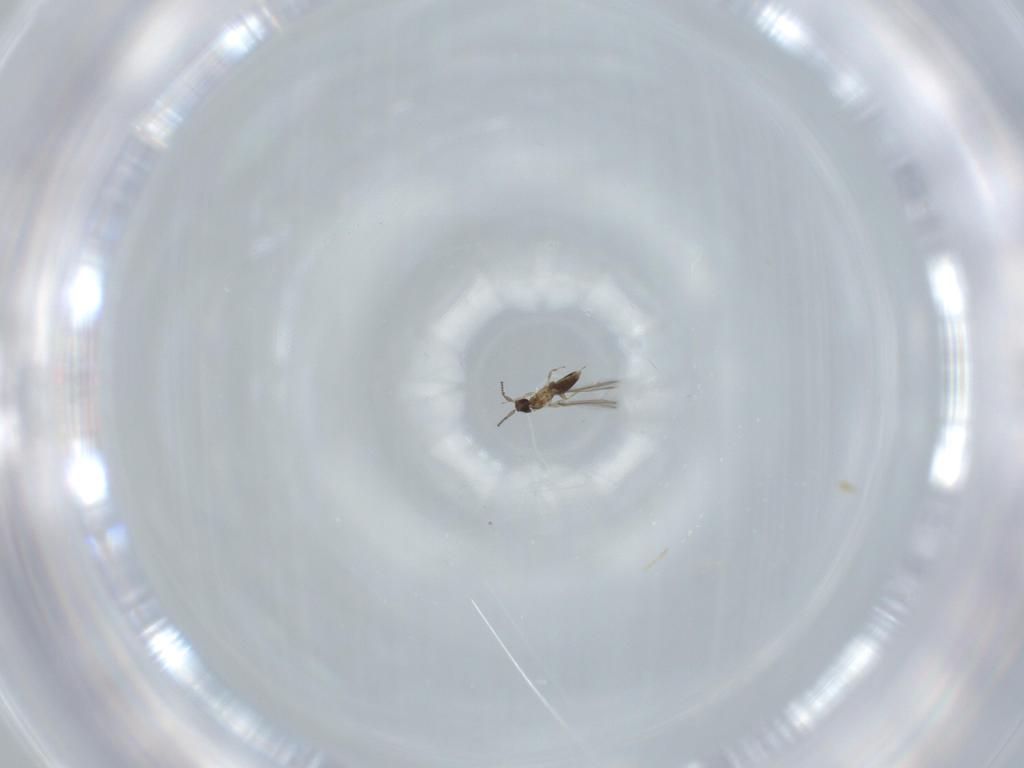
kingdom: Animalia
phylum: Arthropoda
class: Insecta
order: Hymenoptera
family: Mymaridae
